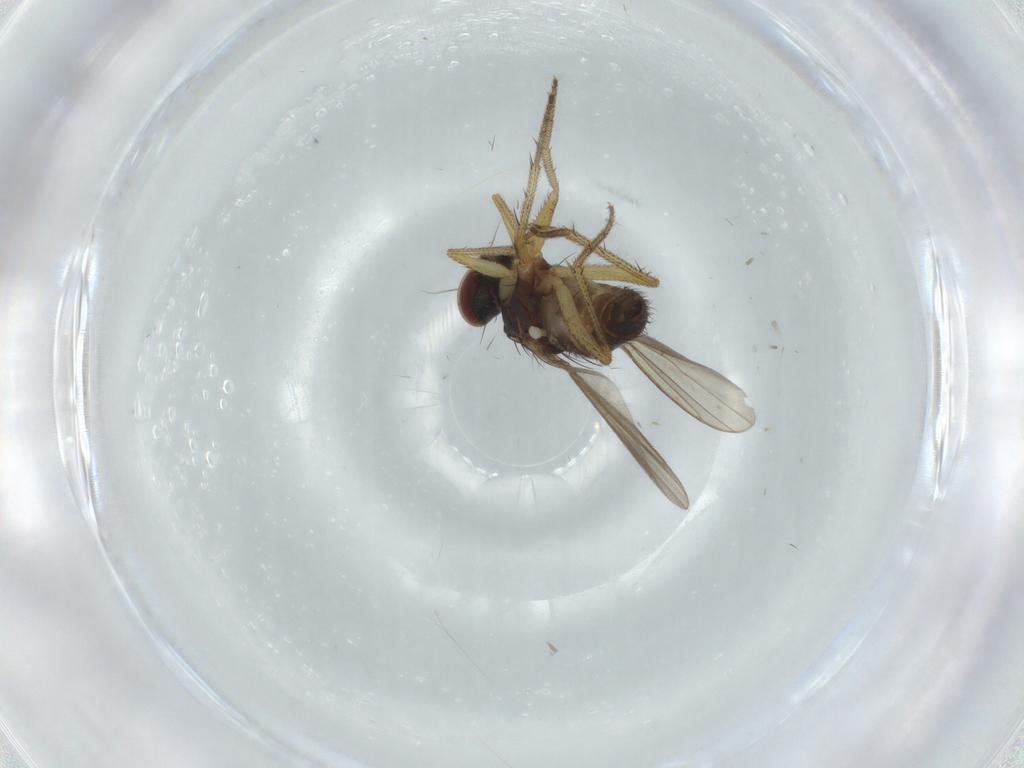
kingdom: Animalia
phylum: Arthropoda
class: Insecta
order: Diptera
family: Dolichopodidae
